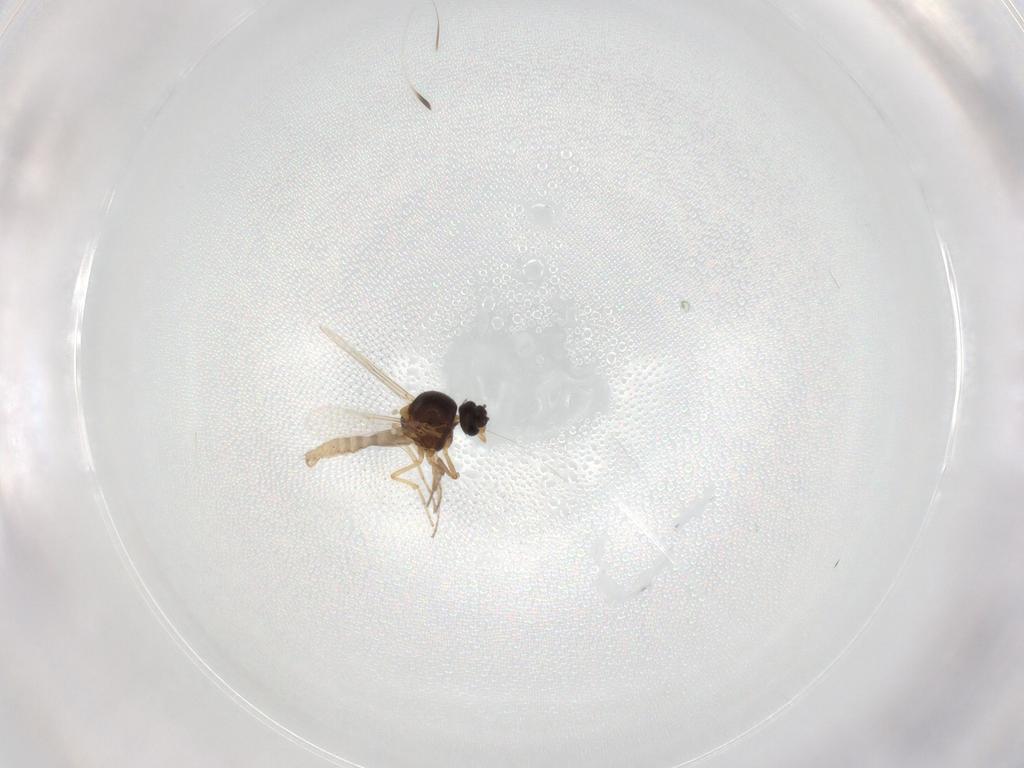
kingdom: Animalia
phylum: Arthropoda
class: Insecta
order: Diptera
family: Ceratopogonidae
